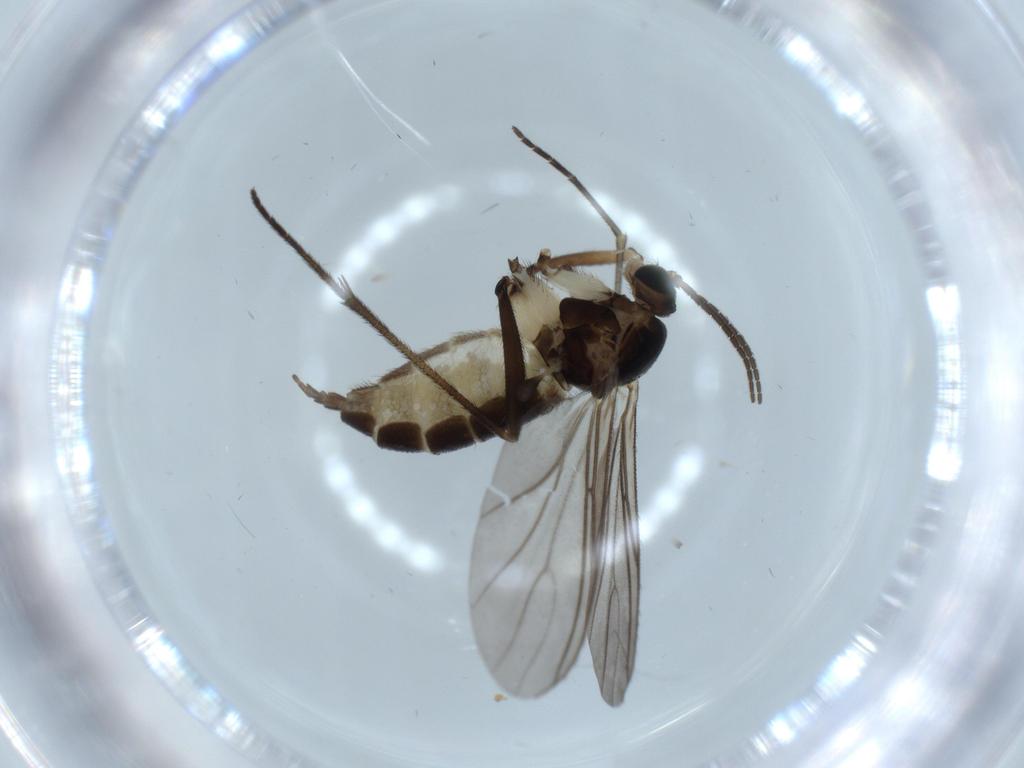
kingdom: Animalia
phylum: Arthropoda
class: Insecta
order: Diptera
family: Sciaridae
